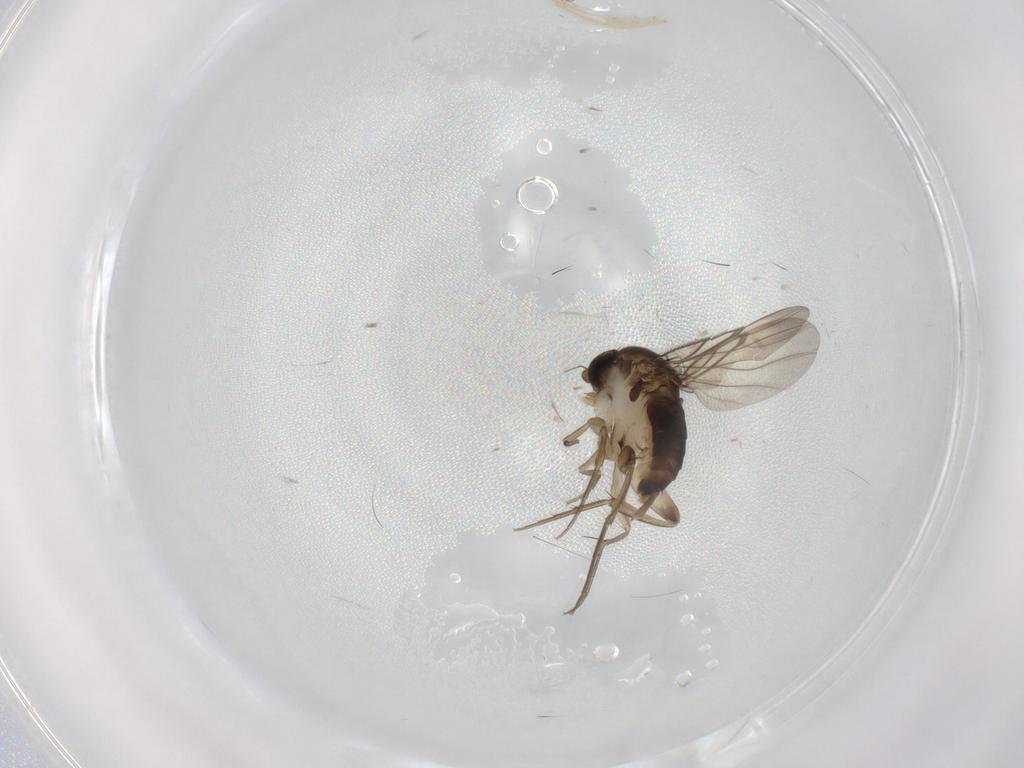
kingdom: Animalia
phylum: Arthropoda
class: Insecta
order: Diptera
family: Phoridae
